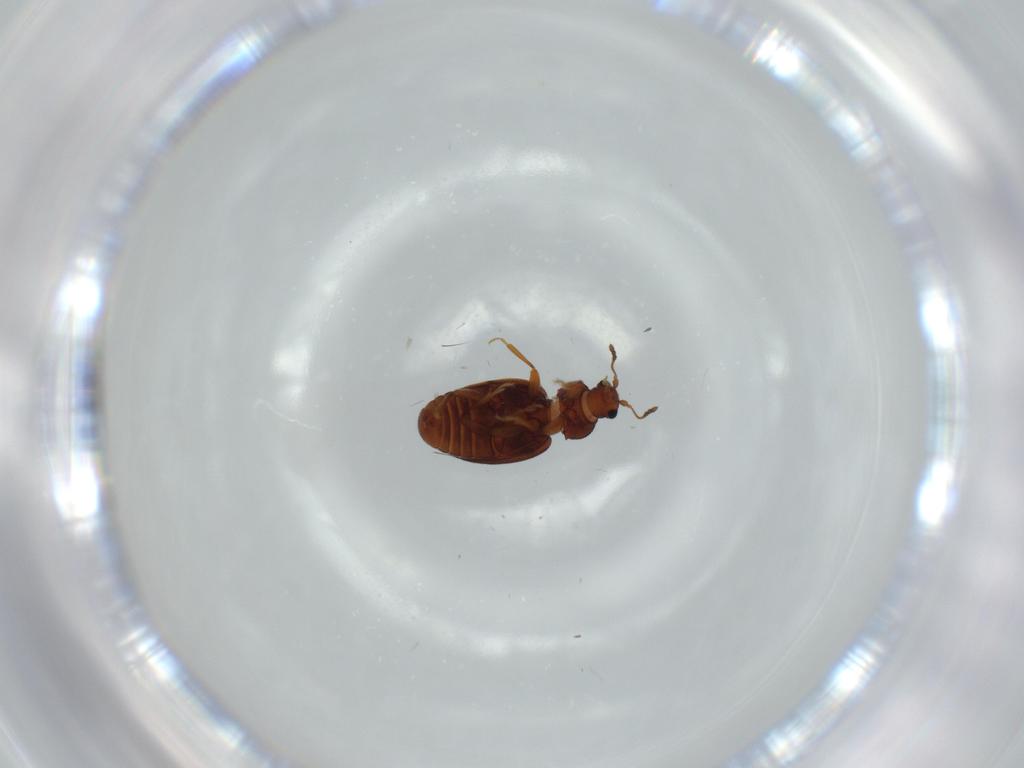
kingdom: Animalia
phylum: Arthropoda
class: Insecta
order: Coleoptera
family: Latridiidae
